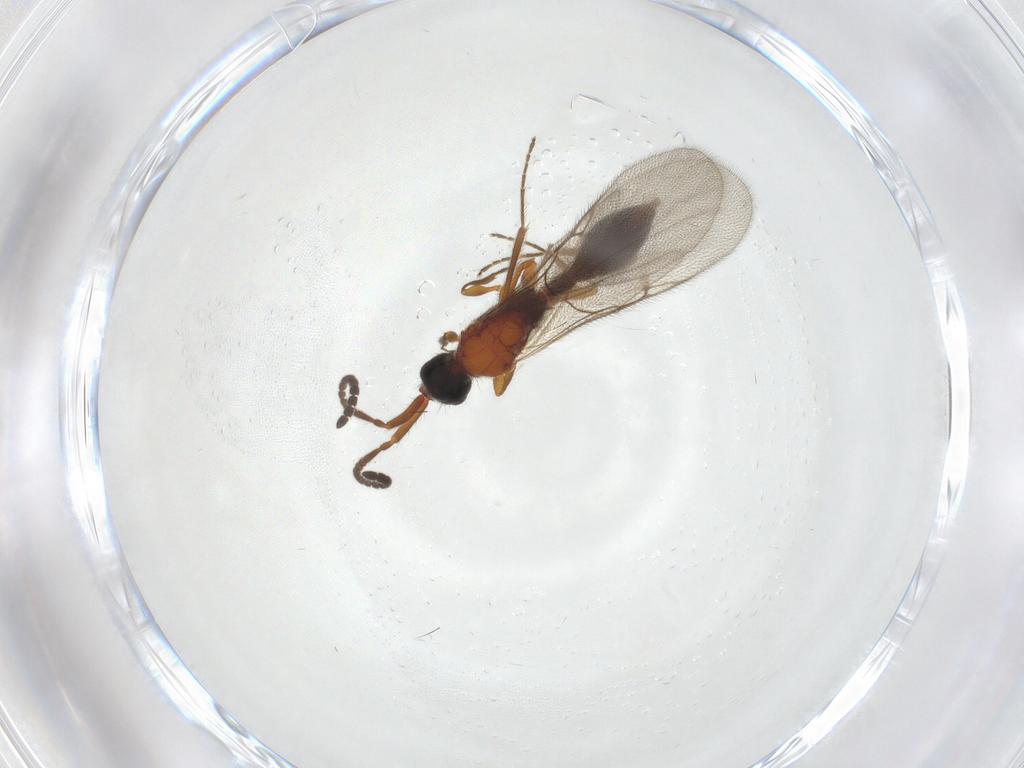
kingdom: Animalia
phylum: Arthropoda
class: Insecta
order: Hymenoptera
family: Diapriidae
